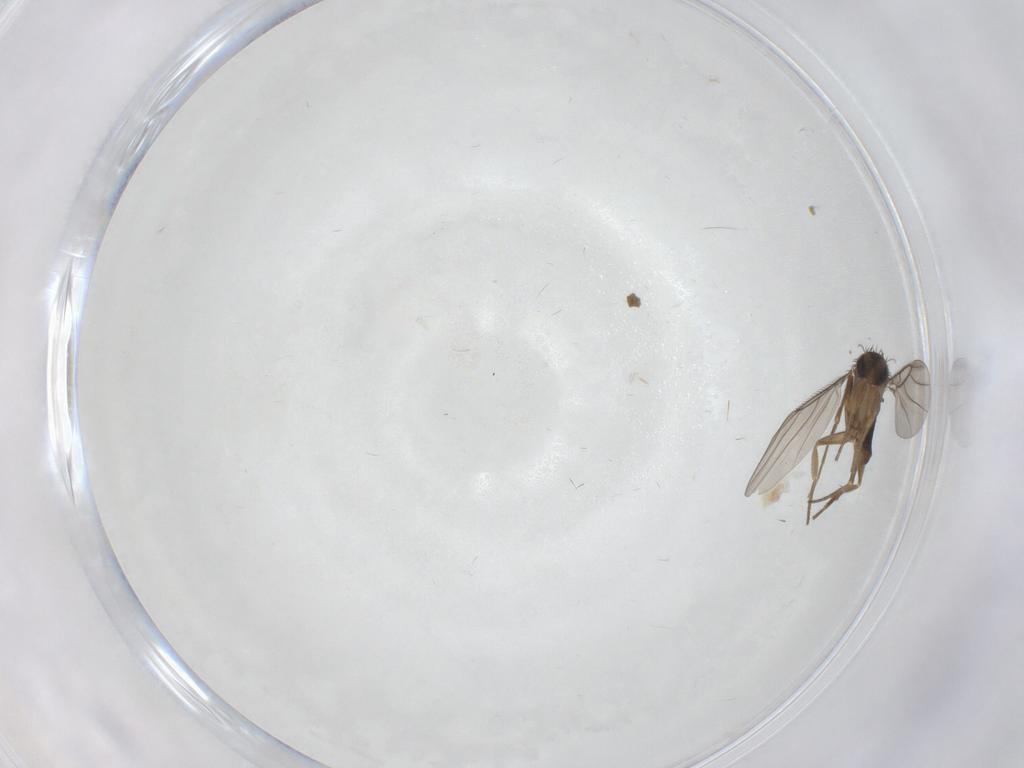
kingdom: Animalia
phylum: Arthropoda
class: Insecta
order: Diptera
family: Phoridae
